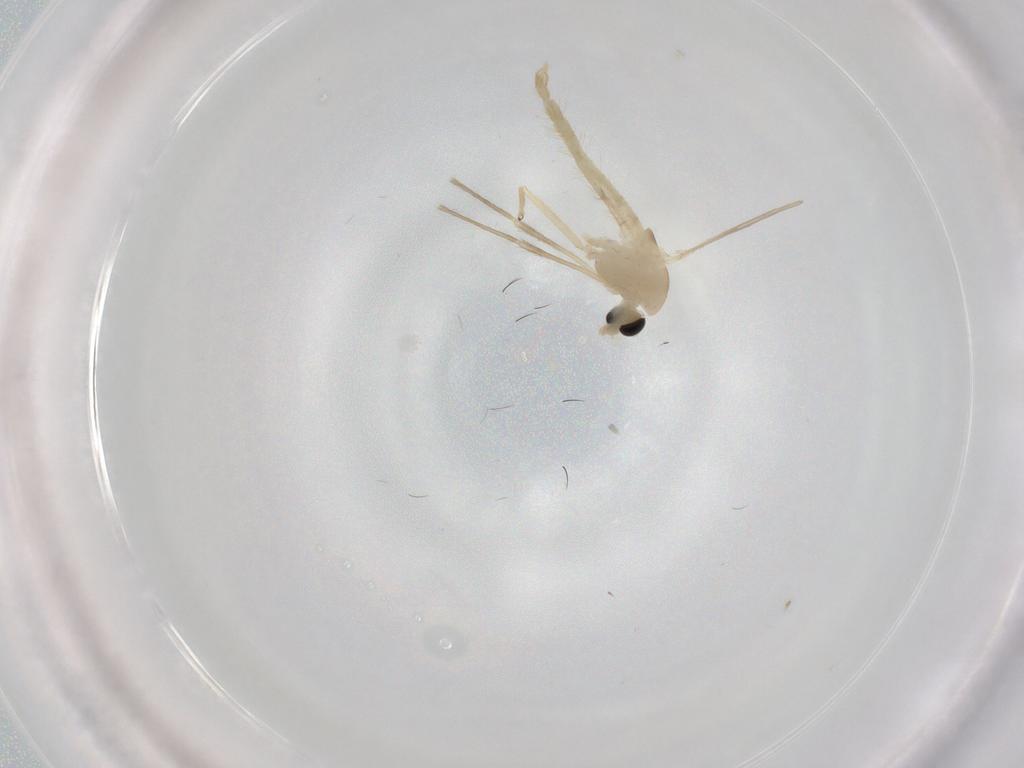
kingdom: Animalia
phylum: Arthropoda
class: Insecta
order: Diptera
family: Chironomidae
